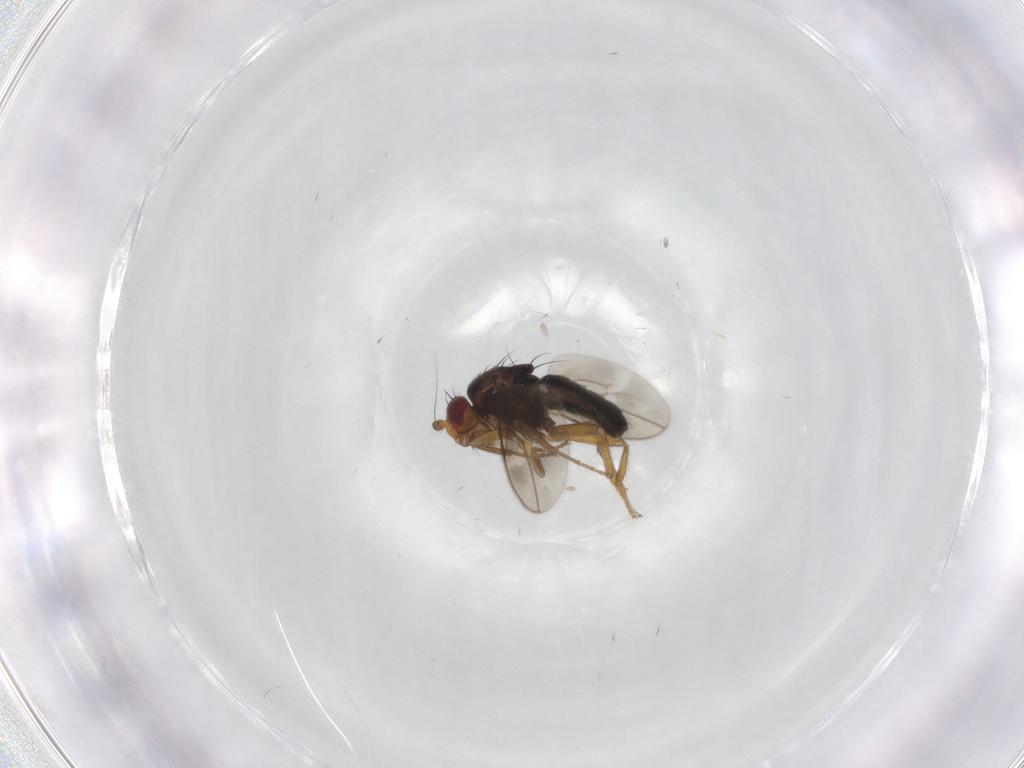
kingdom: Animalia
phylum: Arthropoda
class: Insecta
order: Diptera
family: Phoridae
